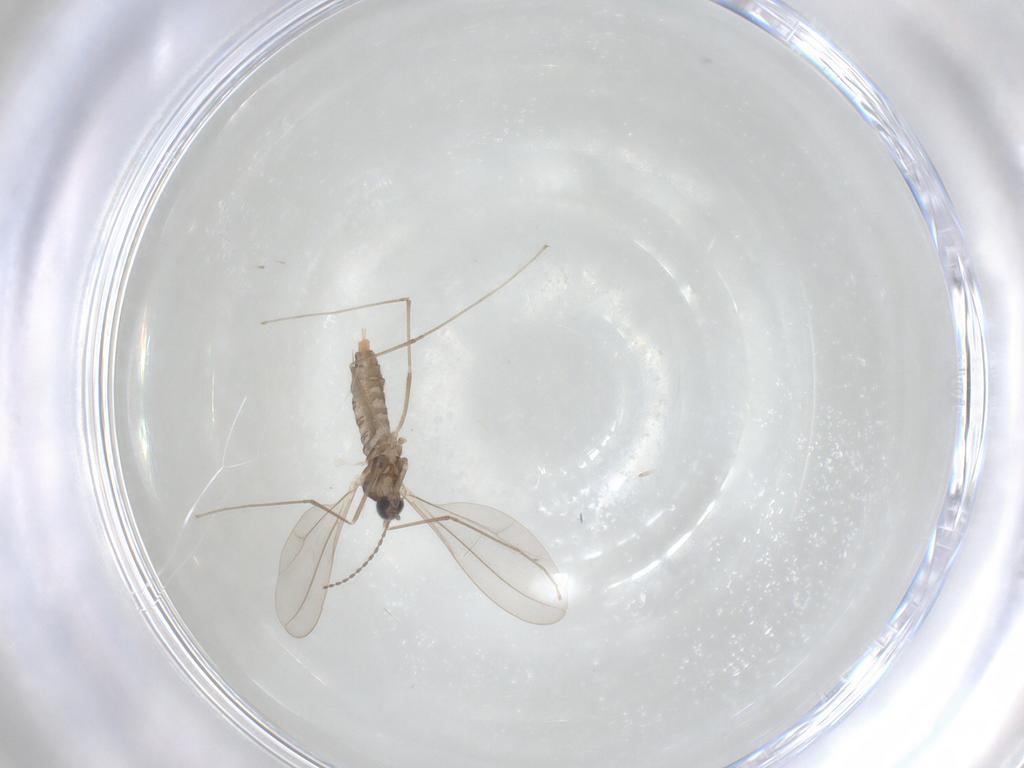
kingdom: Animalia
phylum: Arthropoda
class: Insecta
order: Diptera
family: Cecidomyiidae
